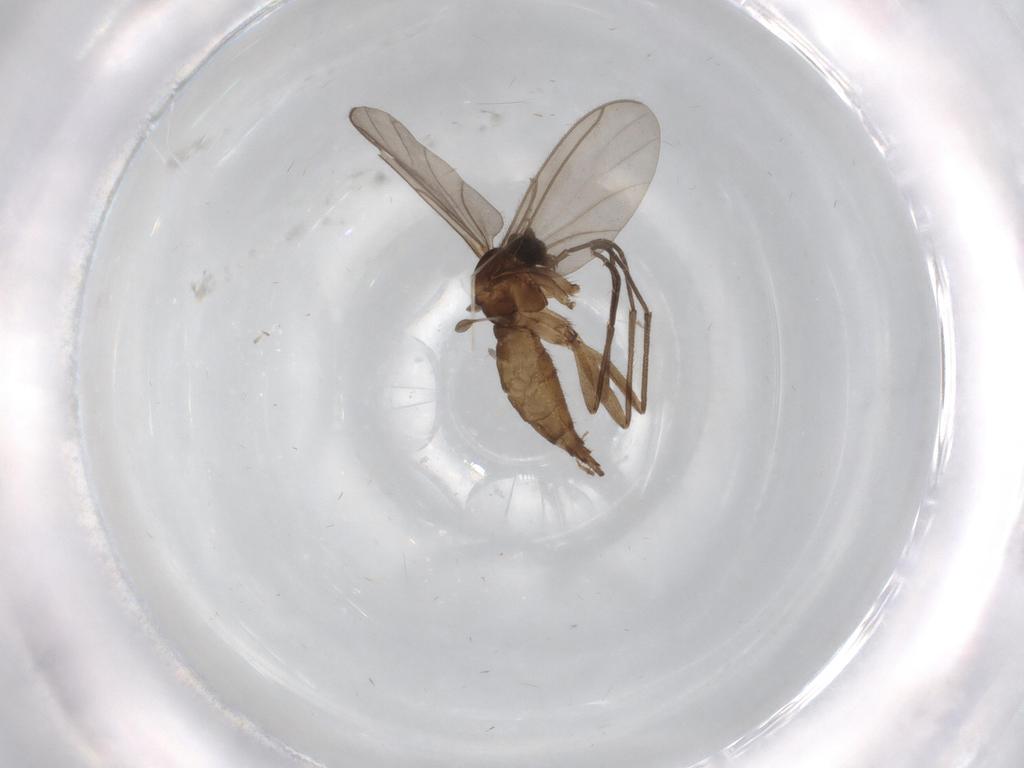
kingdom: Animalia
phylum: Arthropoda
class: Insecta
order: Diptera
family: Sciaridae
